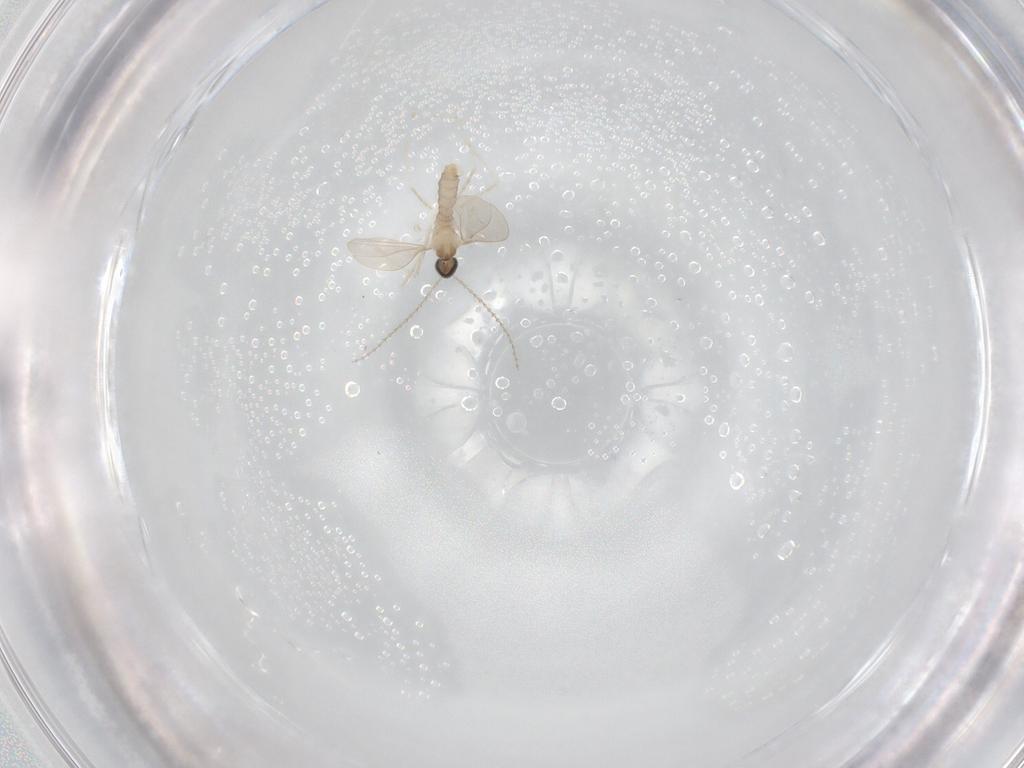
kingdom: Animalia
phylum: Arthropoda
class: Insecta
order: Diptera
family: Cecidomyiidae
